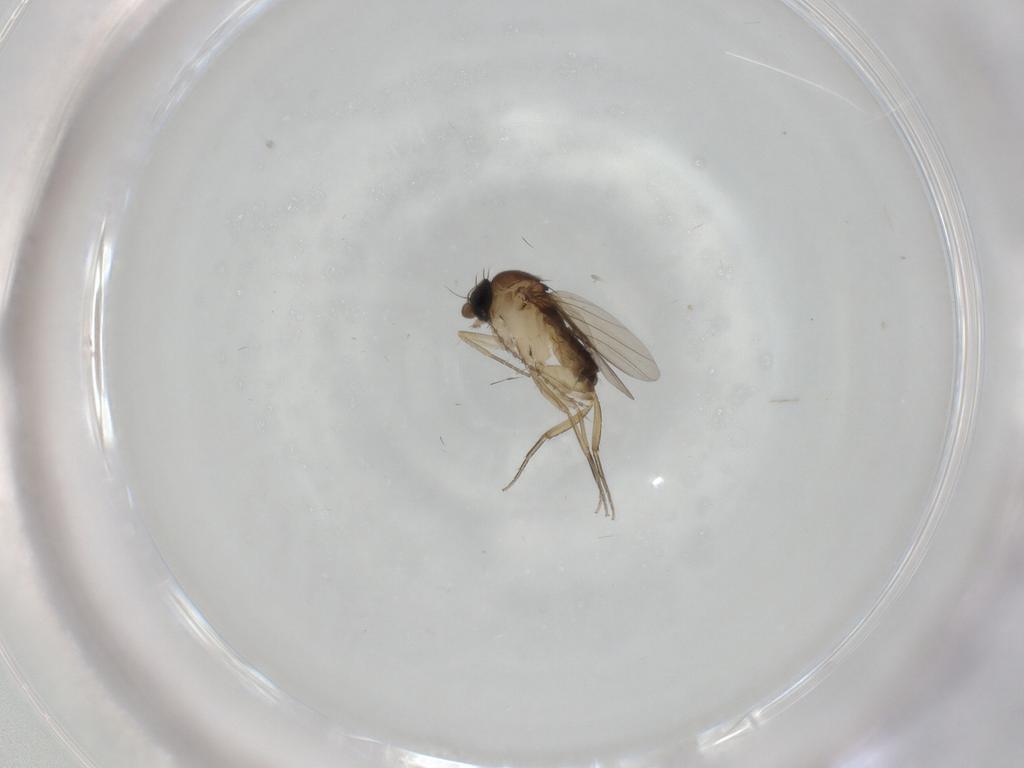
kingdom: Animalia
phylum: Arthropoda
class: Insecta
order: Diptera
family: Phoridae
